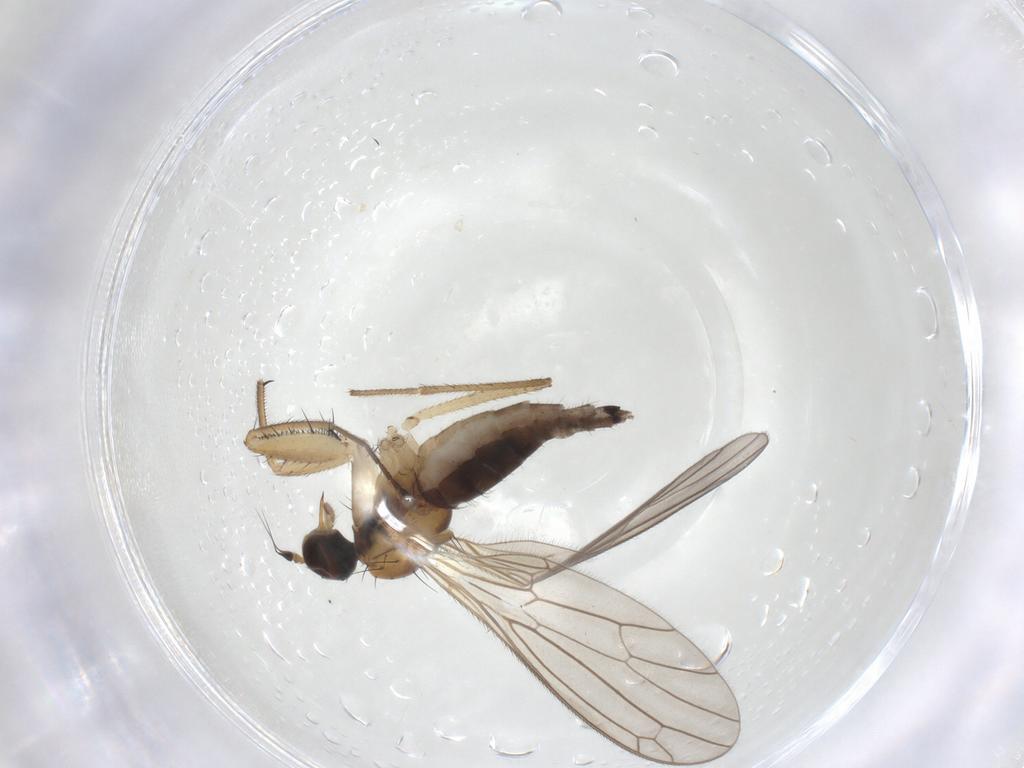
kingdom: Animalia
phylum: Arthropoda
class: Insecta
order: Diptera
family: Empididae
